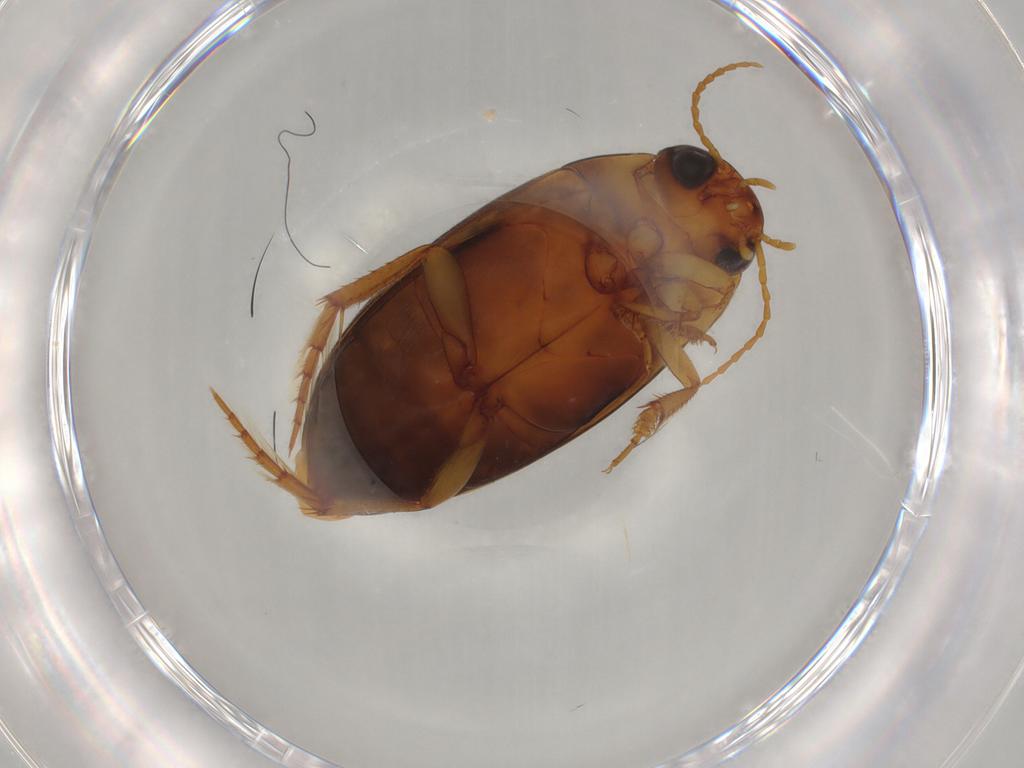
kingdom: Animalia
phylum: Arthropoda
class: Insecta
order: Coleoptera
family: Dytiscidae
